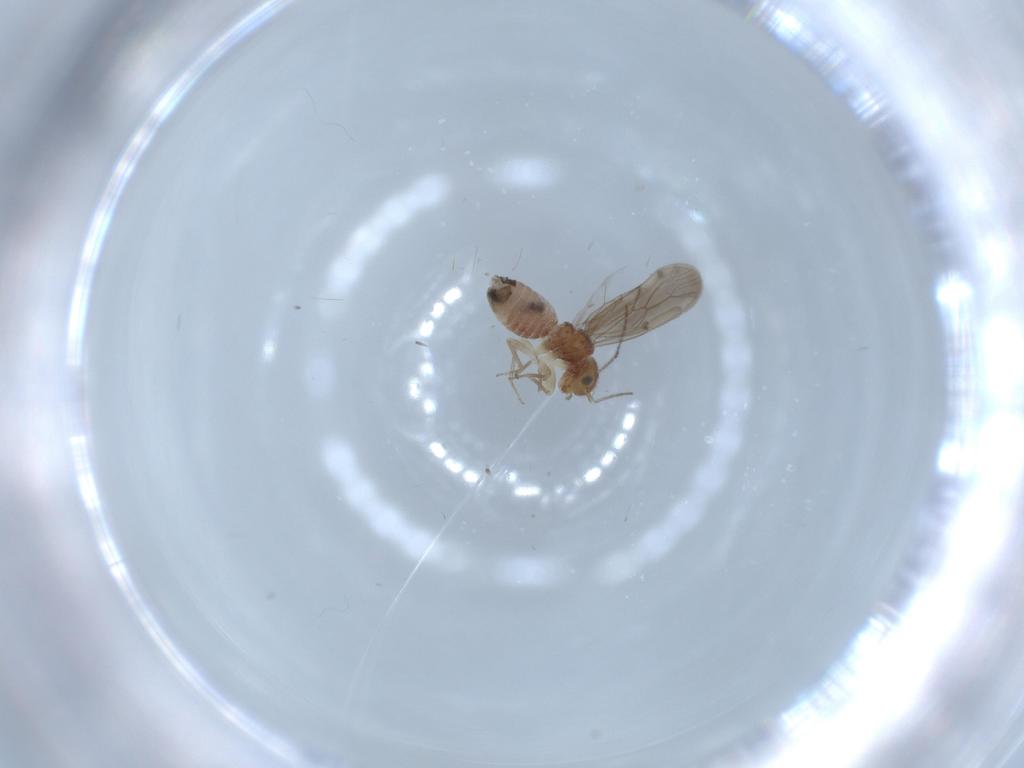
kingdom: Animalia
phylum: Arthropoda
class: Insecta
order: Psocodea
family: Ectopsocidae
